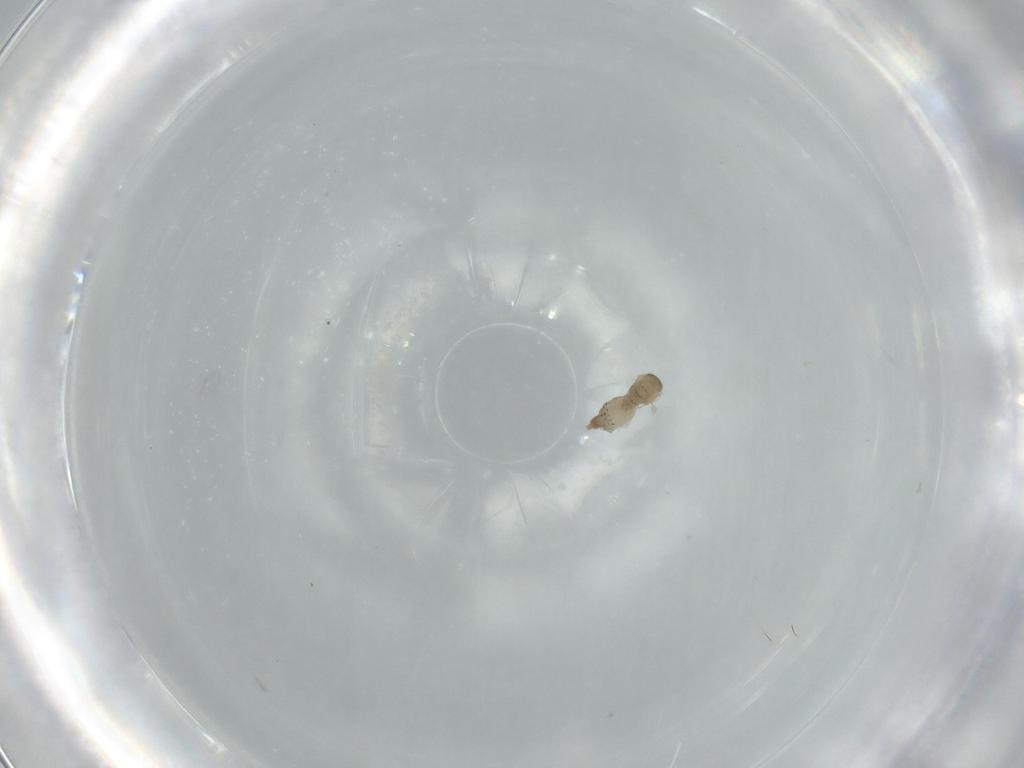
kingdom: Animalia
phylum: Arthropoda
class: Insecta
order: Diptera
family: Cecidomyiidae
